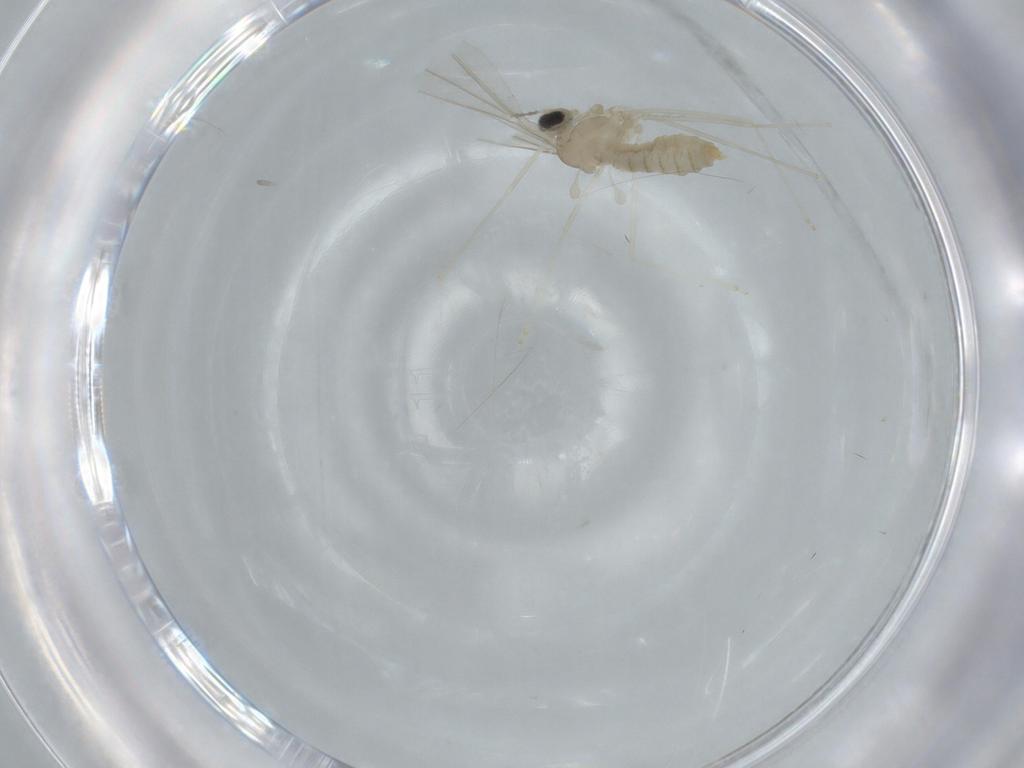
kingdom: Animalia
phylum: Arthropoda
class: Insecta
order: Diptera
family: Cecidomyiidae
